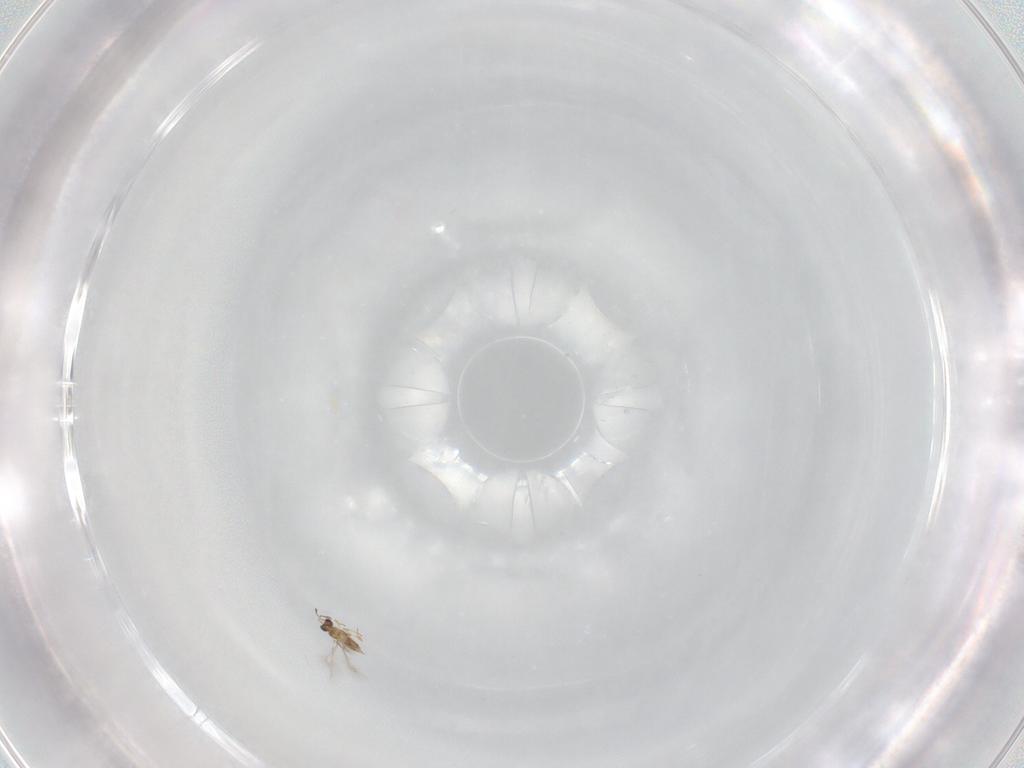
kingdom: Animalia
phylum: Arthropoda
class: Insecta
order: Hymenoptera
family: Mymaridae
